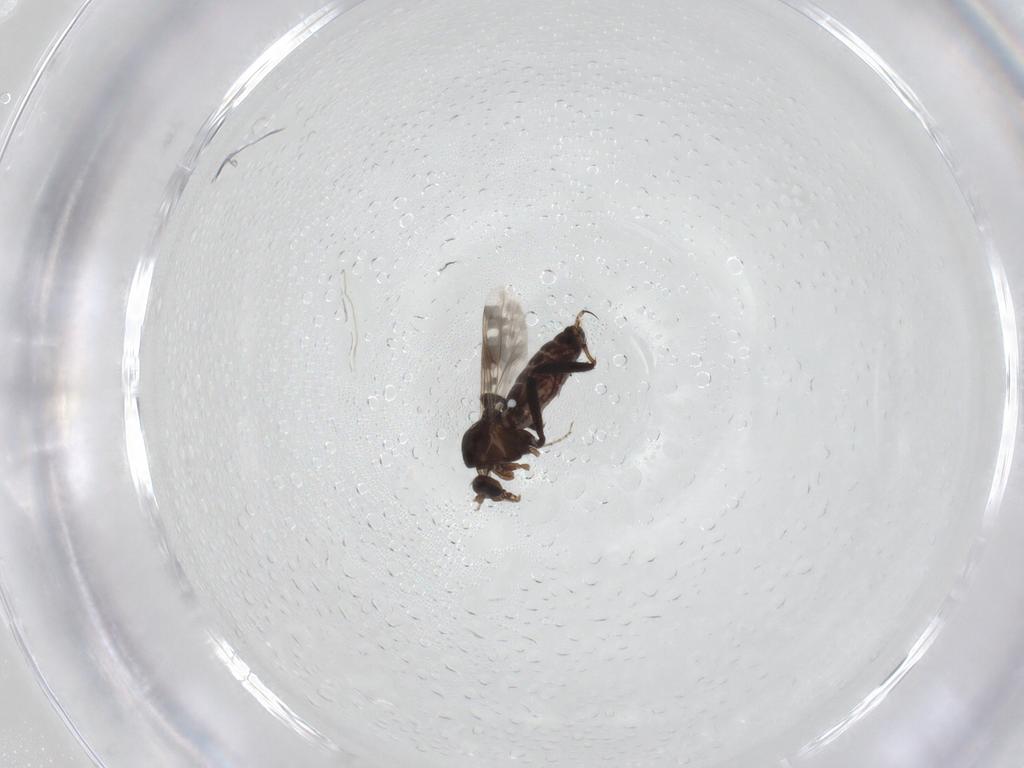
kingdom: Animalia
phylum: Arthropoda
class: Insecta
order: Diptera
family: Ceratopogonidae
